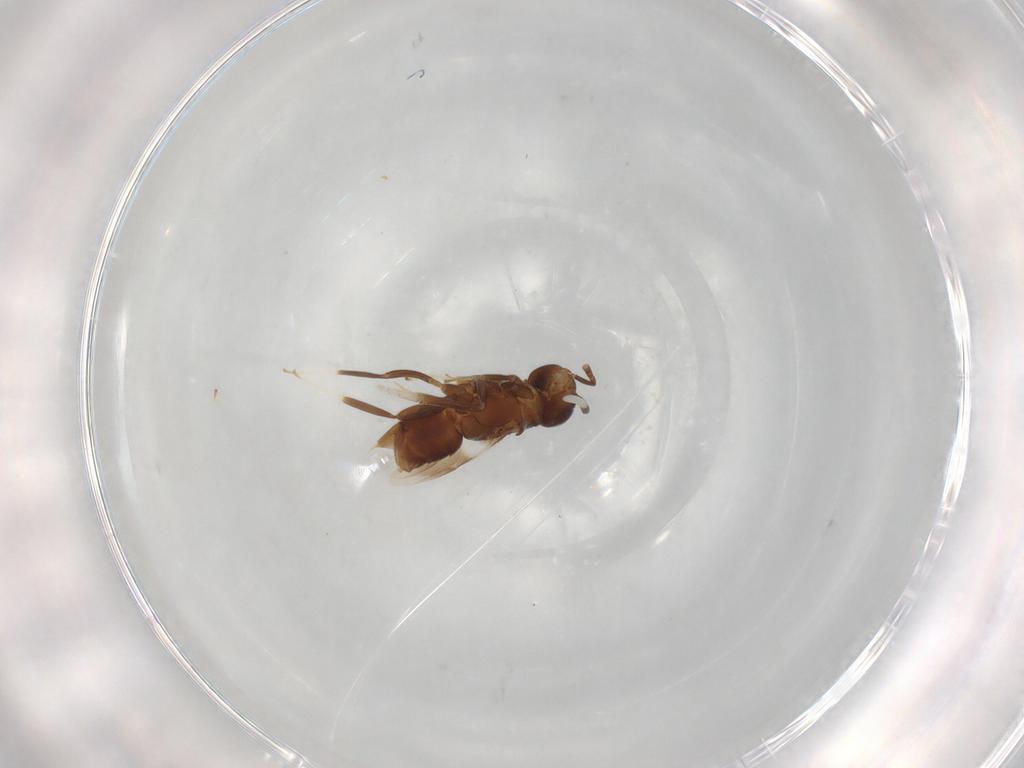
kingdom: Animalia
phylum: Arthropoda
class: Insecta
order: Hymenoptera
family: Encyrtidae
